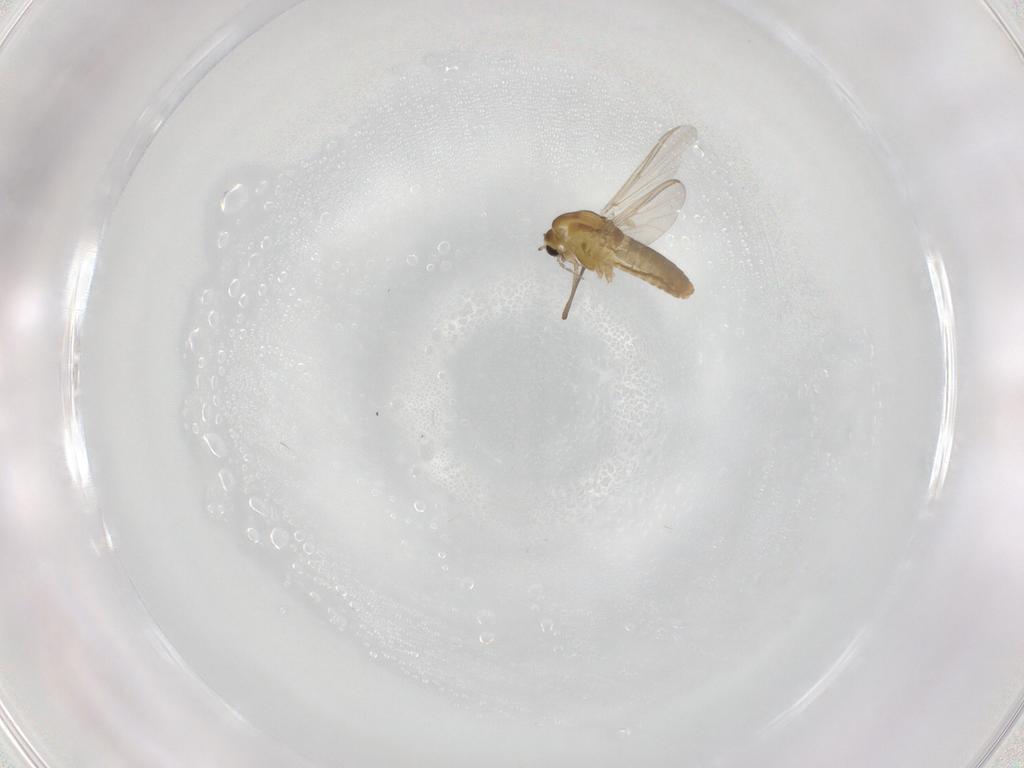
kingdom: Animalia
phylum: Arthropoda
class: Insecta
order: Diptera
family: Chironomidae
